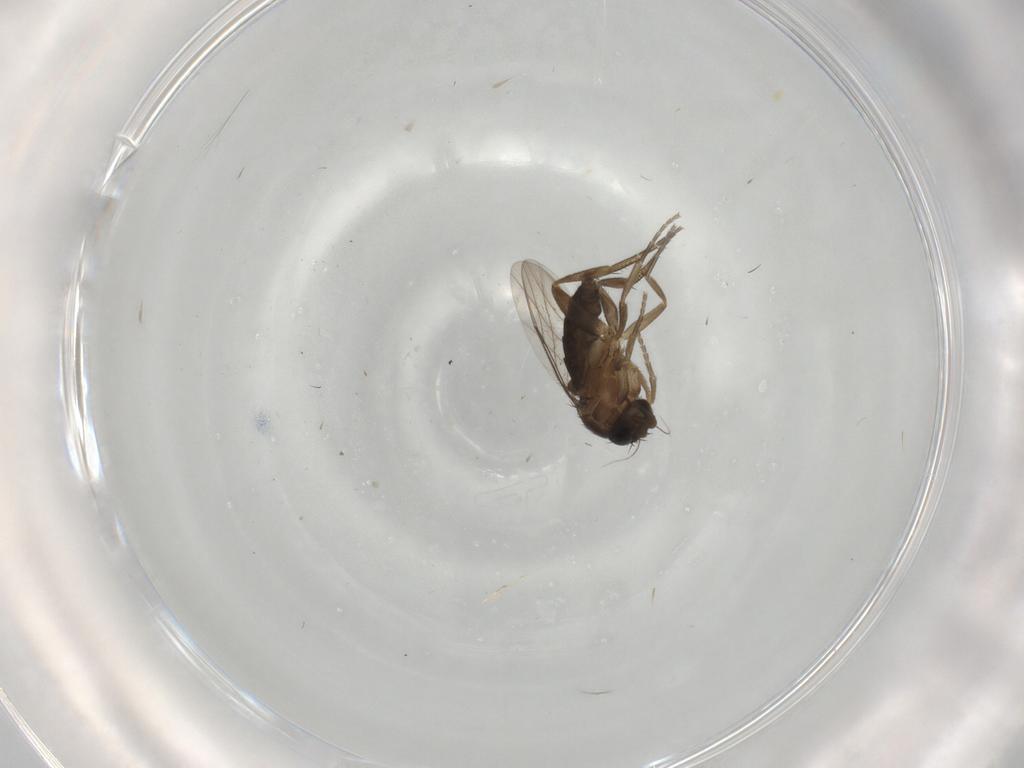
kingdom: Animalia
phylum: Arthropoda
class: Insecta
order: Diptera
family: Phoridae
